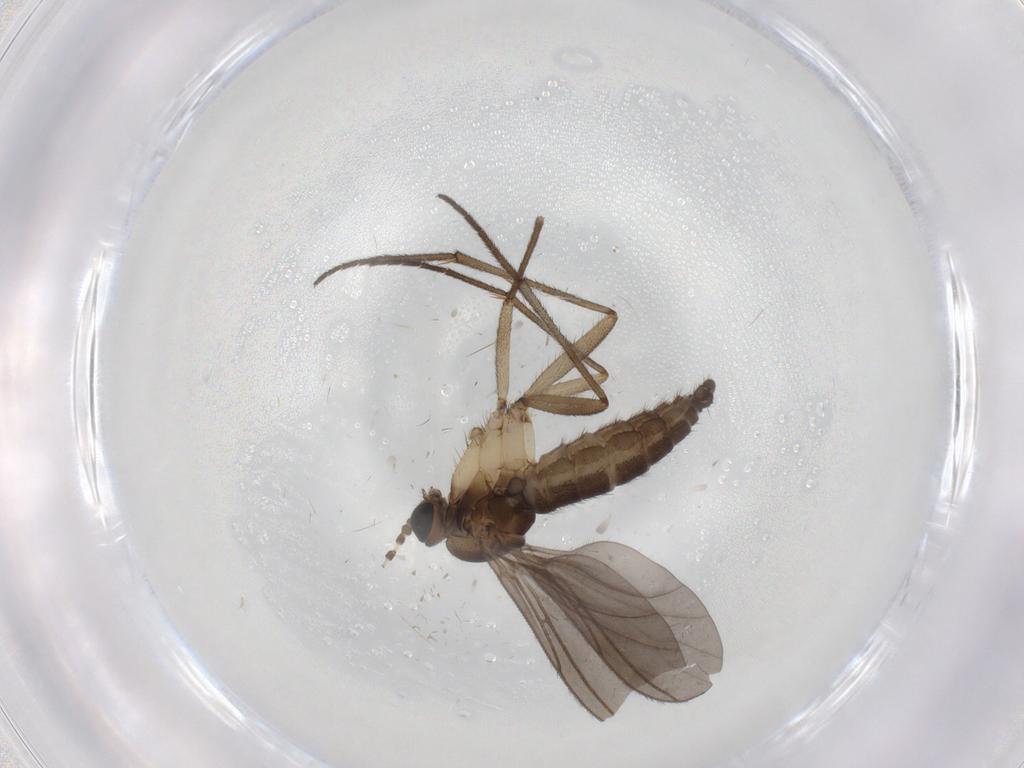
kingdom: Animalia
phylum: Arthropoda
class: Insecta
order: Diptera
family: Sciaridae
